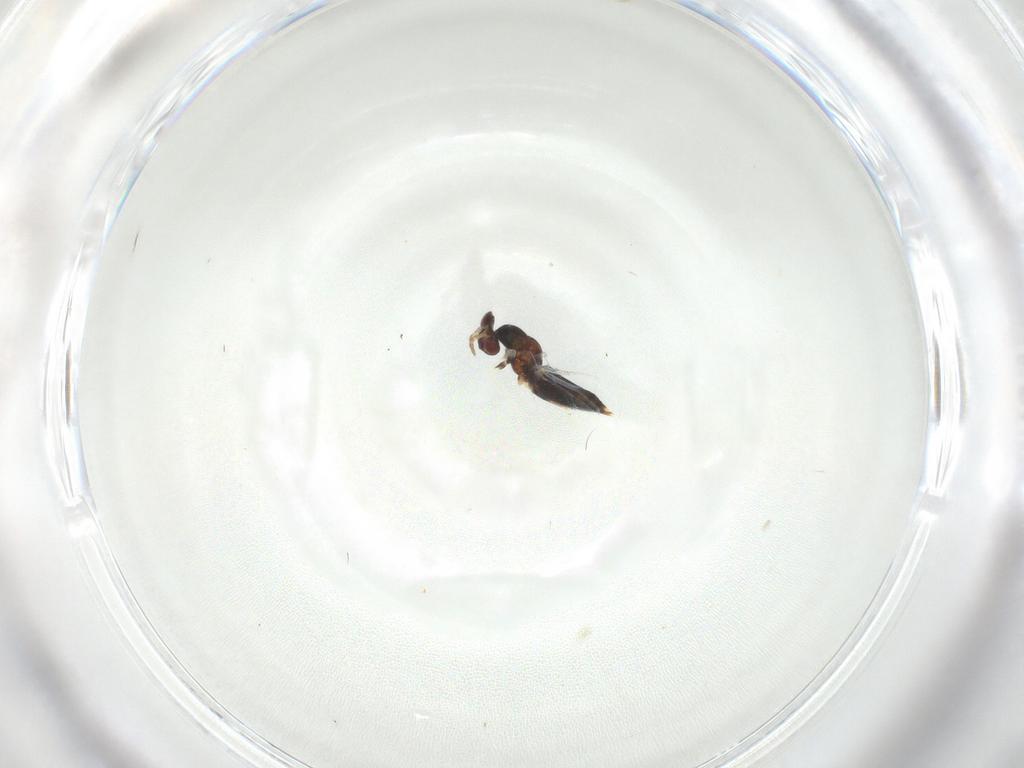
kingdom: Animalia
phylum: Arthropoda
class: Insecta
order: Hymenoptera
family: Eulophidae
